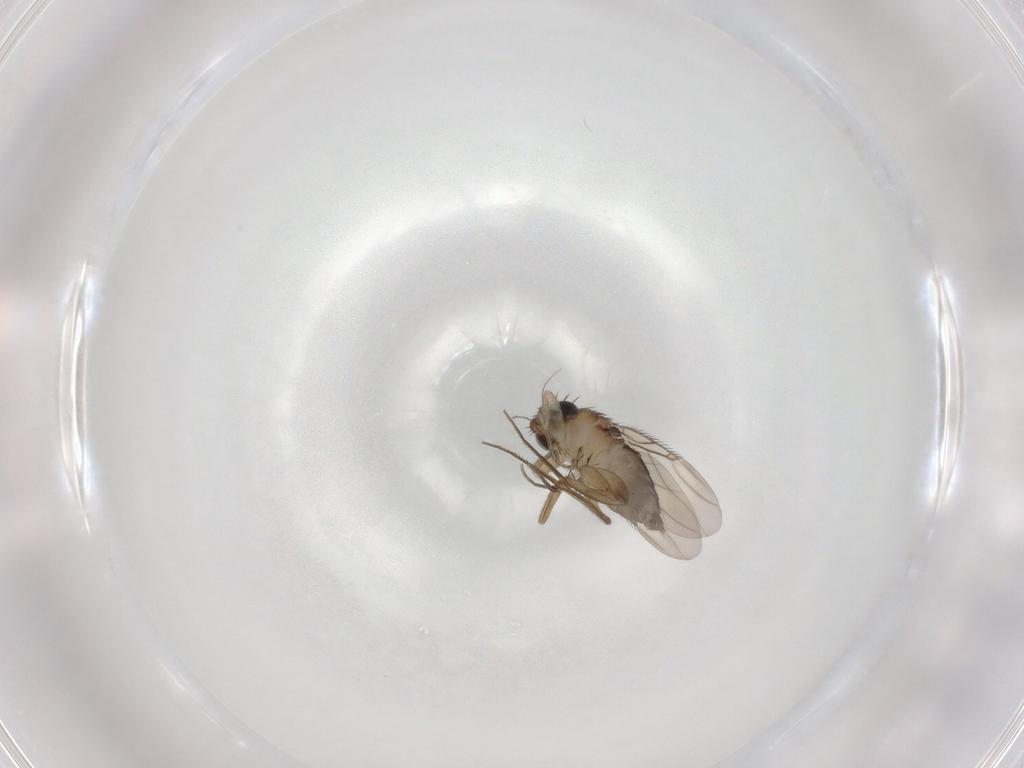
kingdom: Animalia
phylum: Arthropoda
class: Insecta
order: Diptera
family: Phoridae
